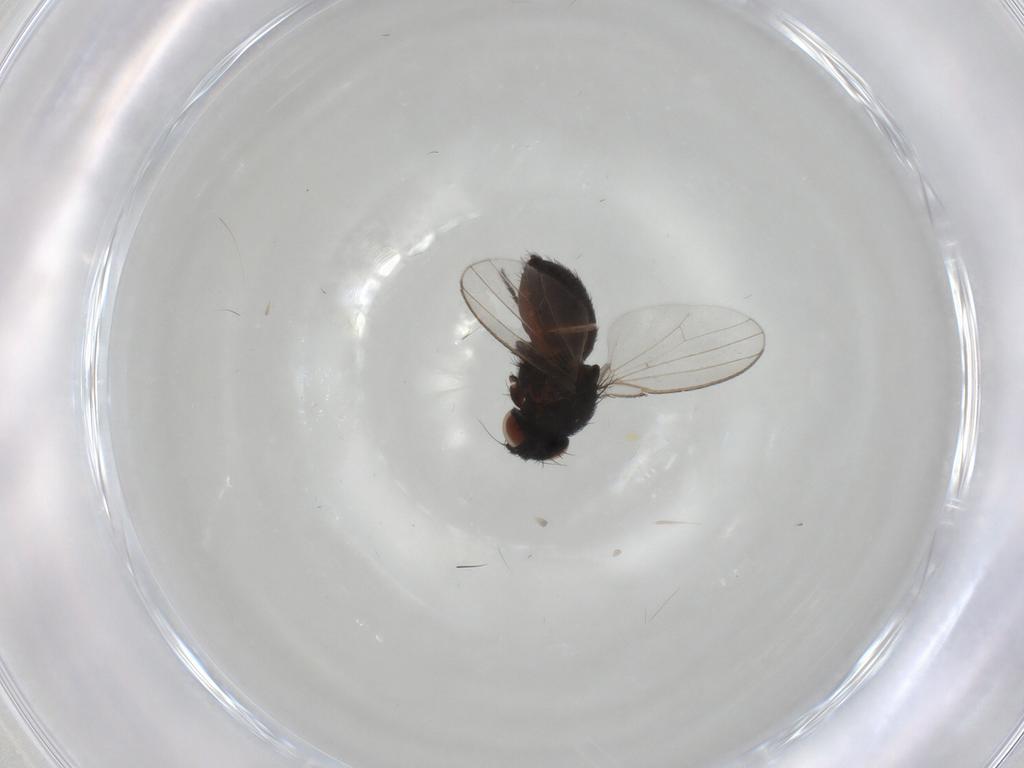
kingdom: Animalia
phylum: Arthropoda
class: Insecta
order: Diptera
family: Milichiidae
